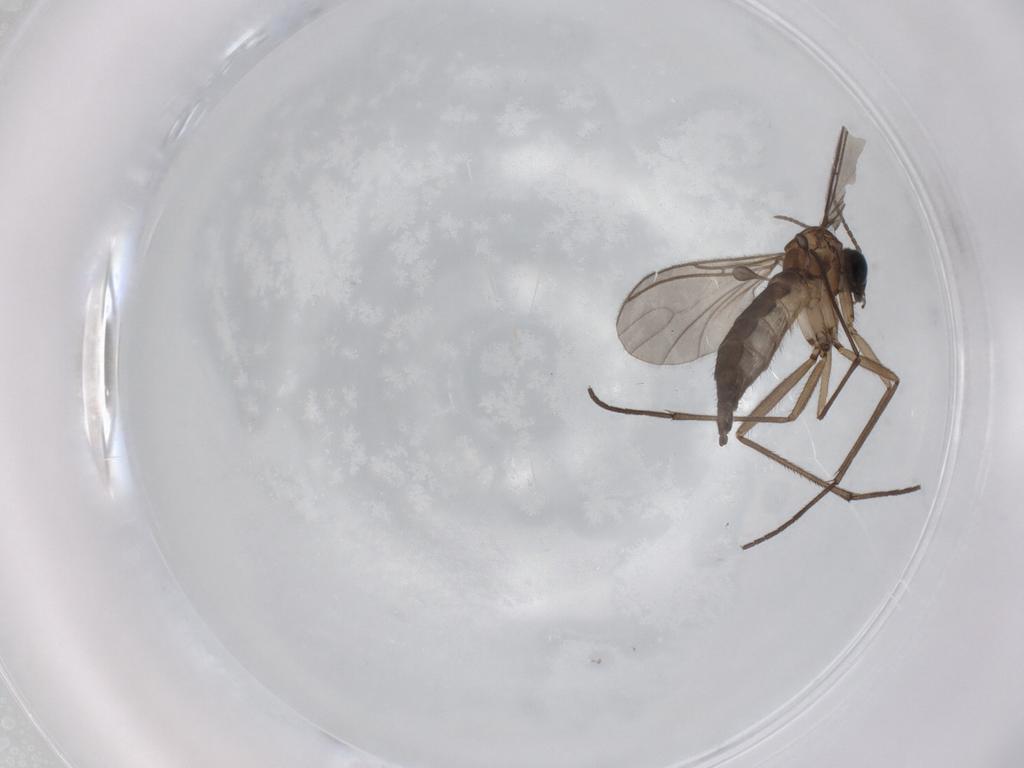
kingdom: Animalia
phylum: Arthropoda
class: Insecta
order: Diptera
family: Sciaridae
